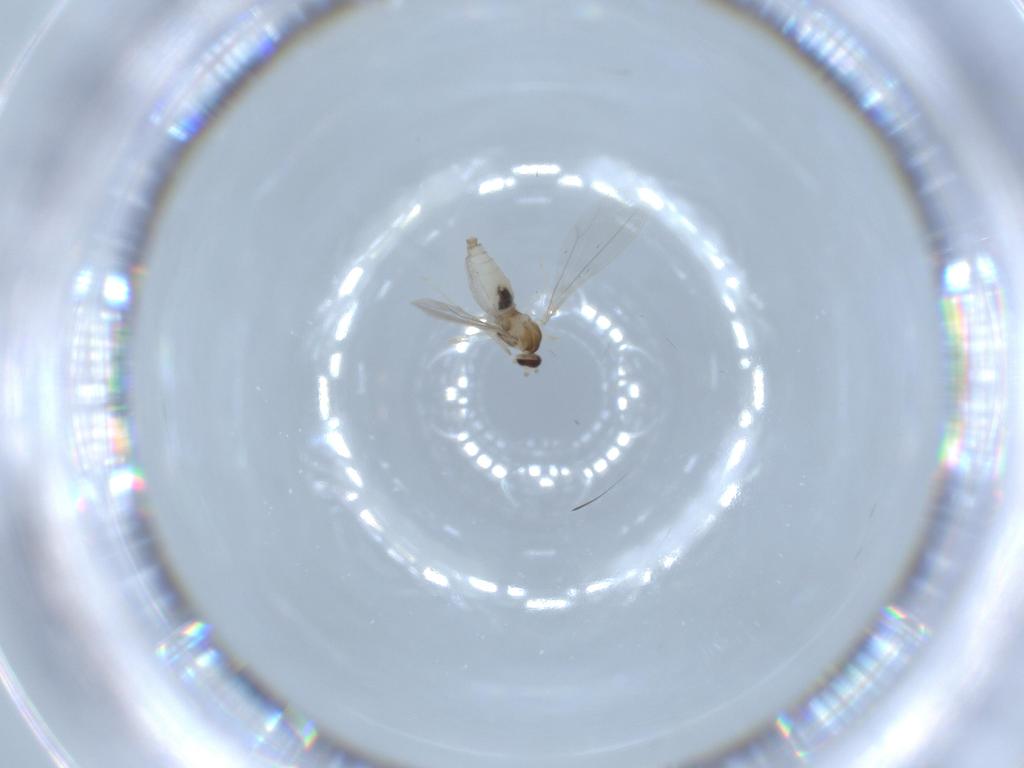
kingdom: Animalia
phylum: Arthropoda
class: Insecta
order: Diptera
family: Cecidomyiidae
